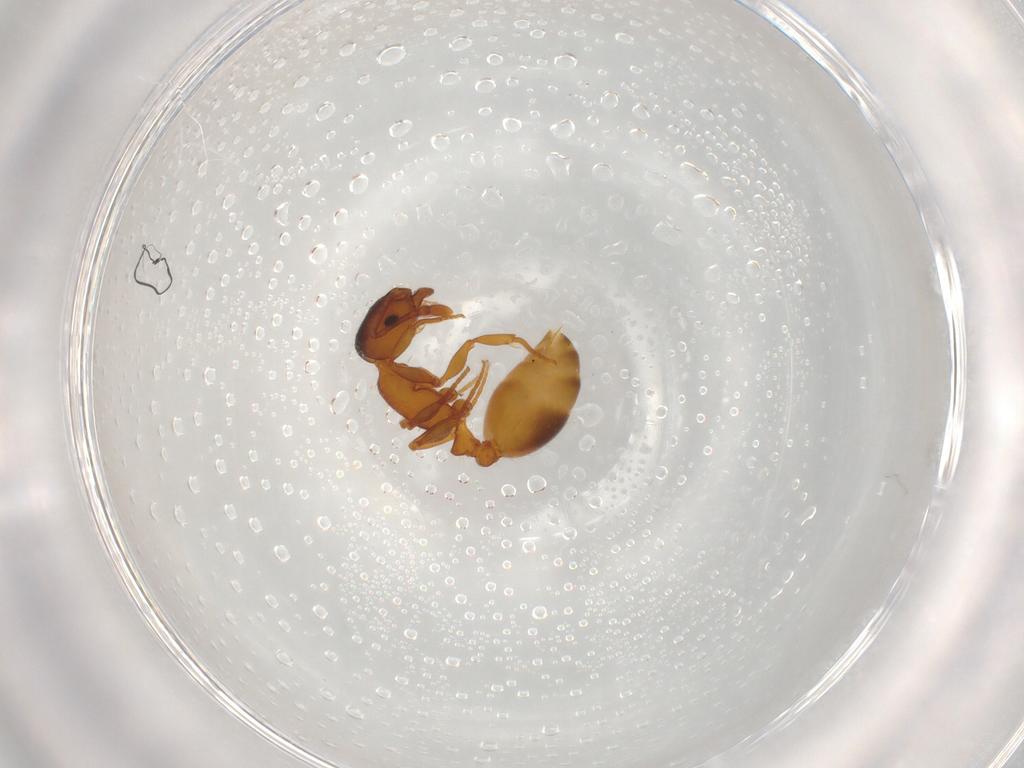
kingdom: Animalia
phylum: Arthropoda
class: Insecta
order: Hymenoptera
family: Formicidae
